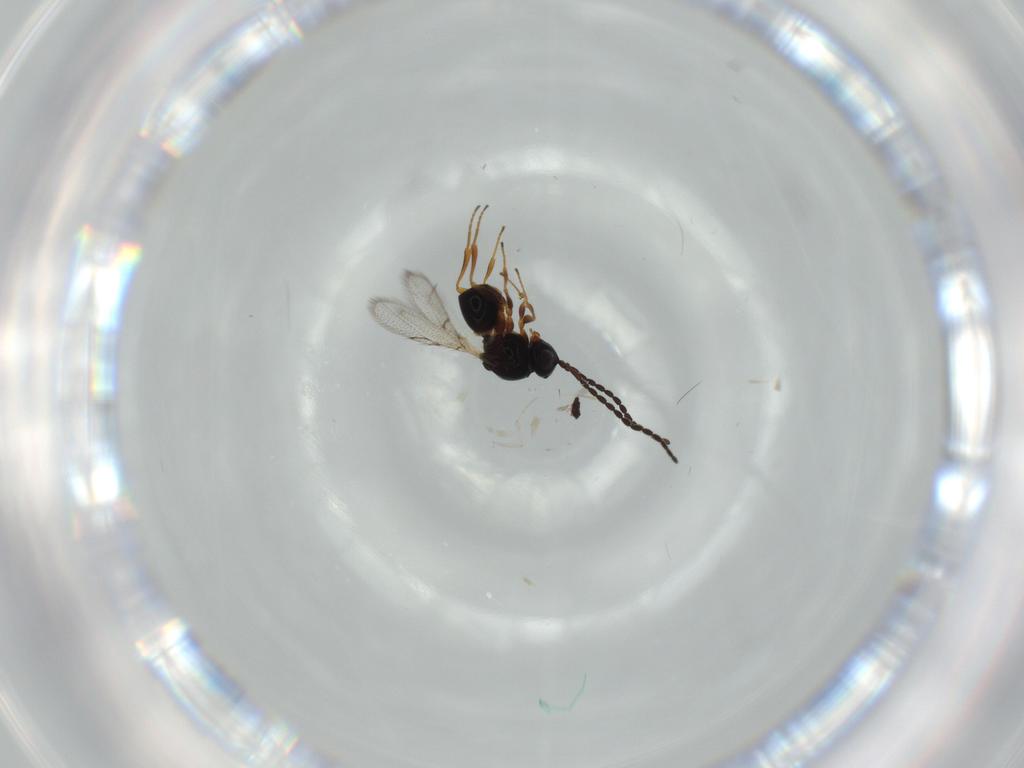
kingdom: Animalia
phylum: Arthropoda
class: Insecta
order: Hymenoptera
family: Figitidae
